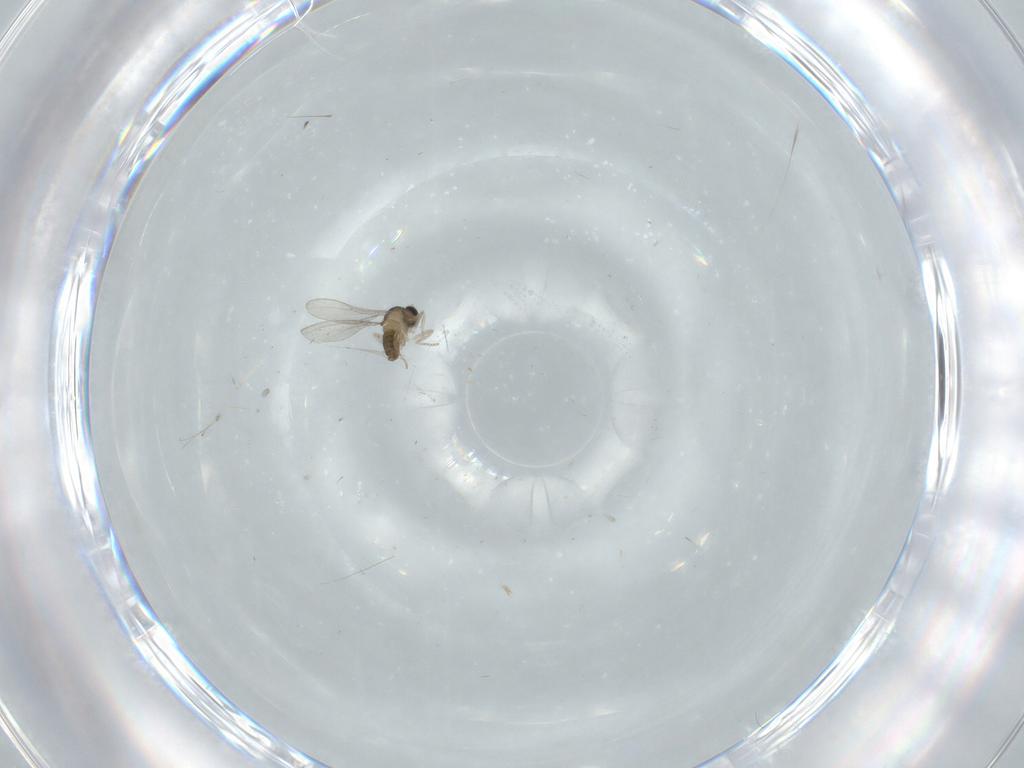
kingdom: Animalia
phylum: Arthropoda
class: Insecta
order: Diptera
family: Cecidomyiidae
